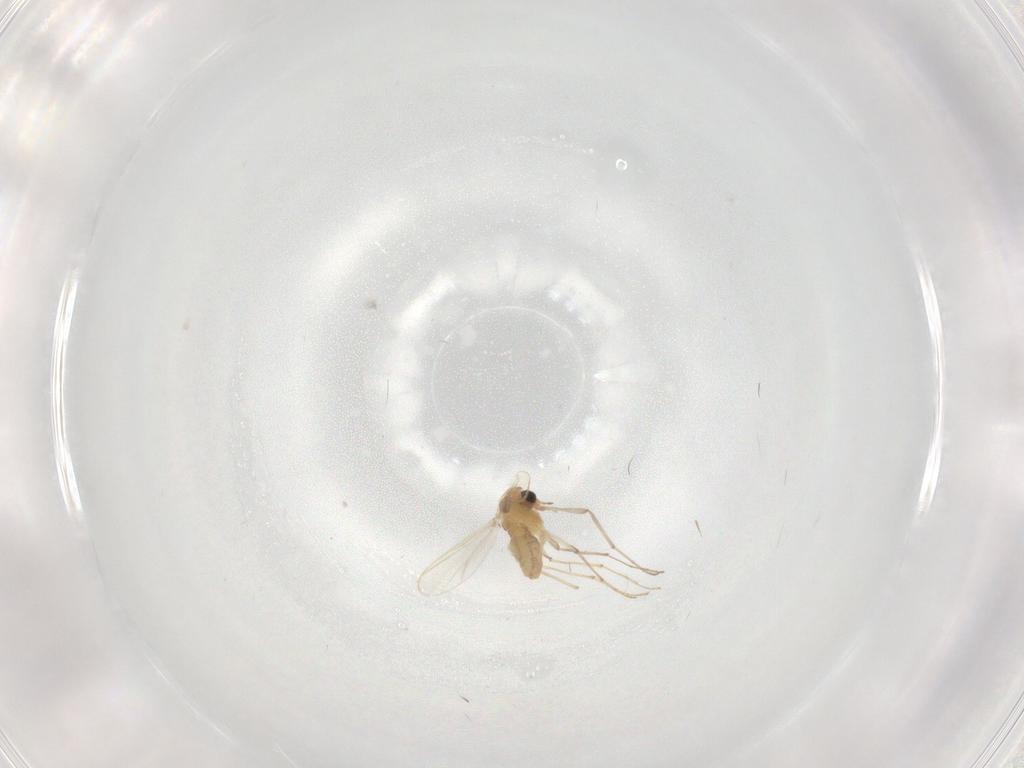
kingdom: Animalia
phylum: Arthropoda
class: Insecta
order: Diptera
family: Chironomidae
